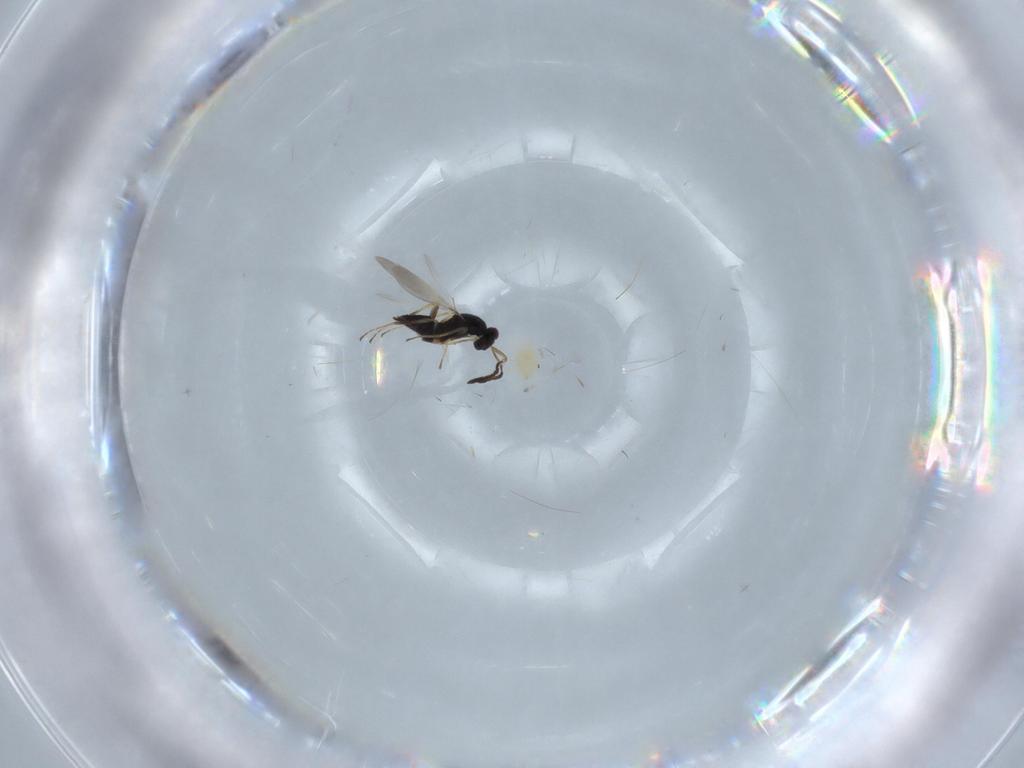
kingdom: Animalia
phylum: Arthropoda
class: Insecta
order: Hymenoptera
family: Mymaridae
